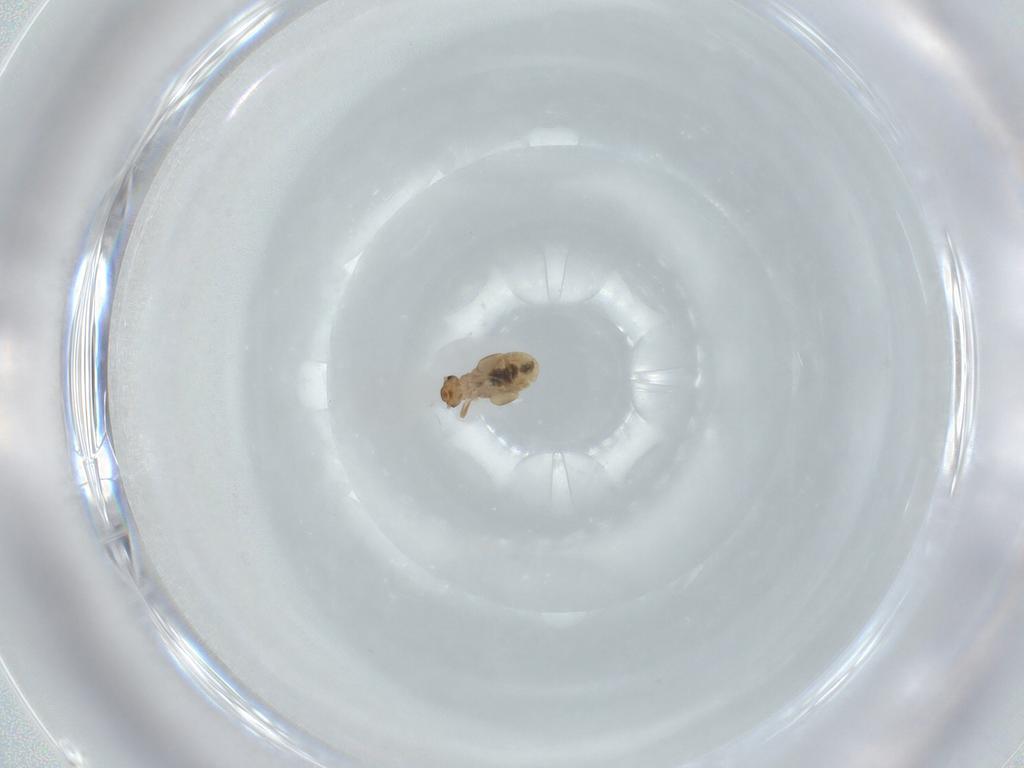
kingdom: Animalia
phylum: Arthropoda
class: Insecta
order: Psocodea
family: Liposcelididae
